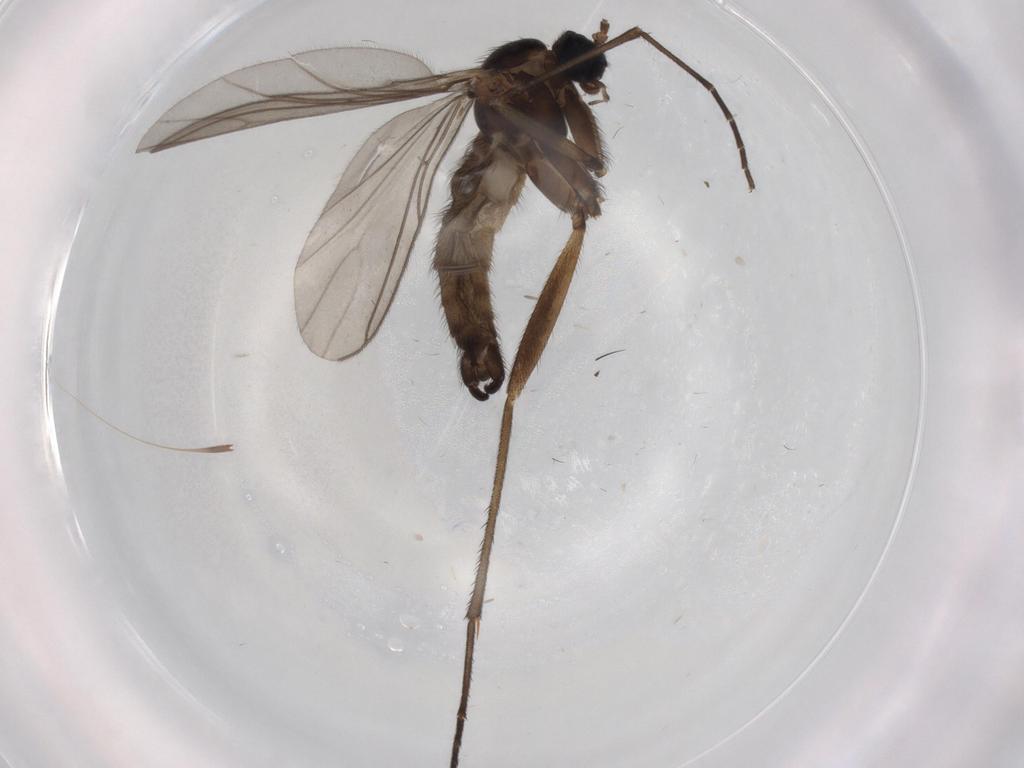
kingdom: Animalia
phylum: Arthropoda
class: Insecta
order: Diptera
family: Sciaridae
